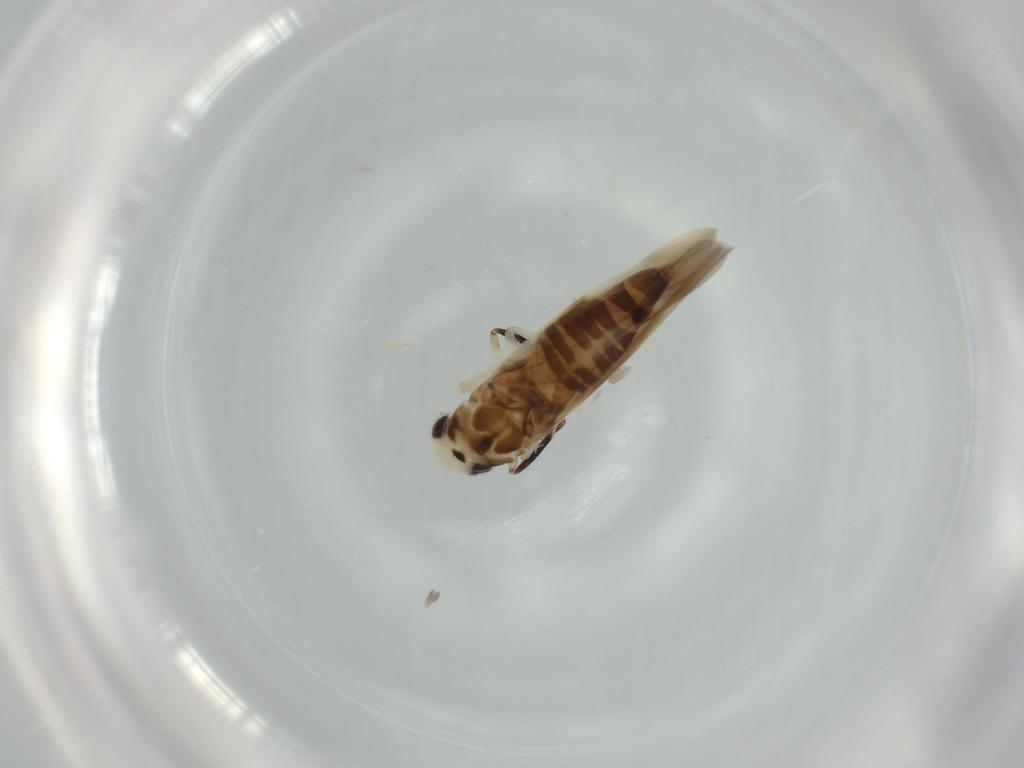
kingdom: Animalia
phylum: Arthropoda
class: Insecta
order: Hemiptera
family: Cicadellidae
